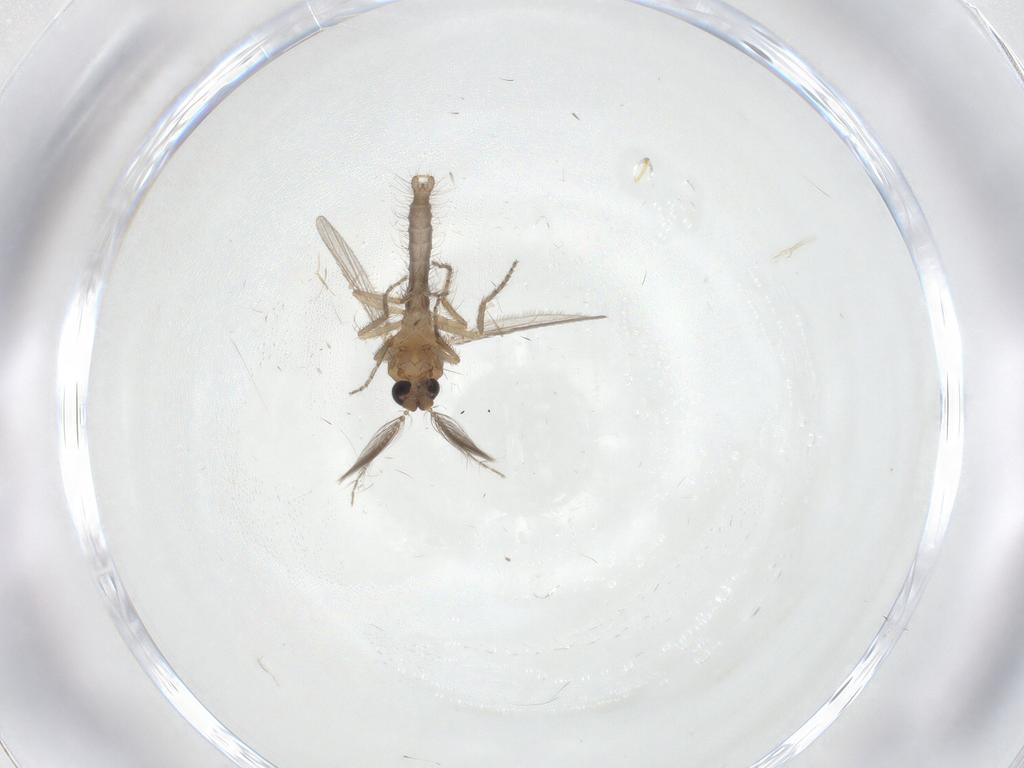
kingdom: Animalia
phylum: Arthropoda
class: Insecta
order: Diptera
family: Ceratopogonidae
